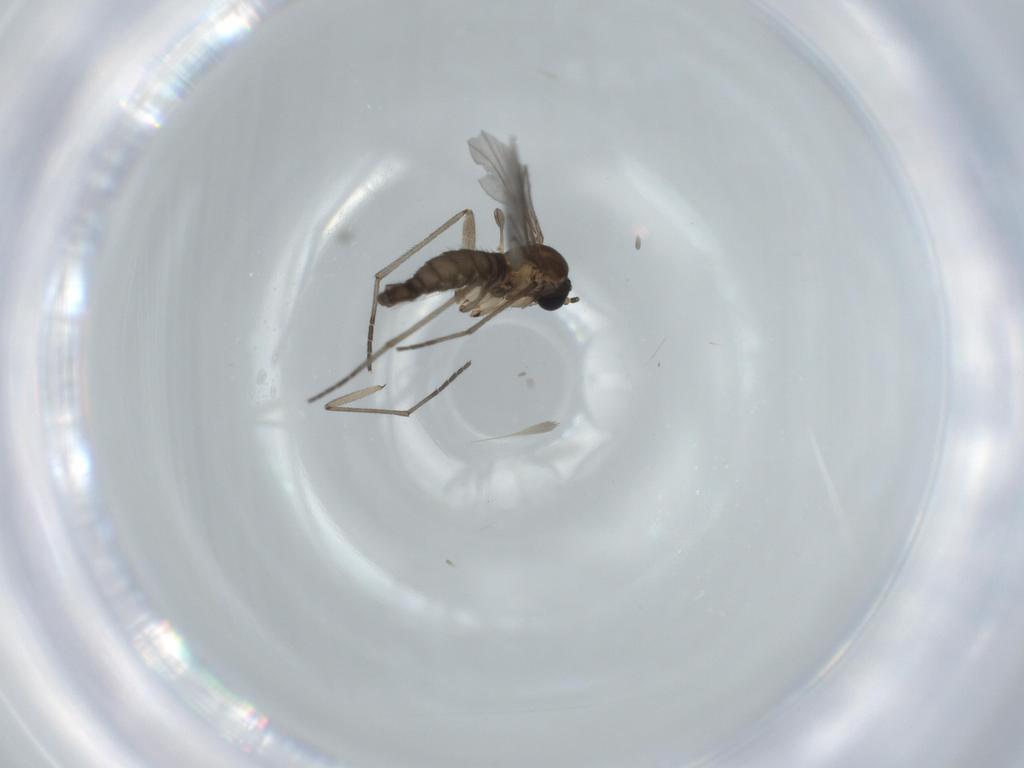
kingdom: Animalia
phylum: Arthropoda
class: Insecta
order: Diptera
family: Sciaridae
